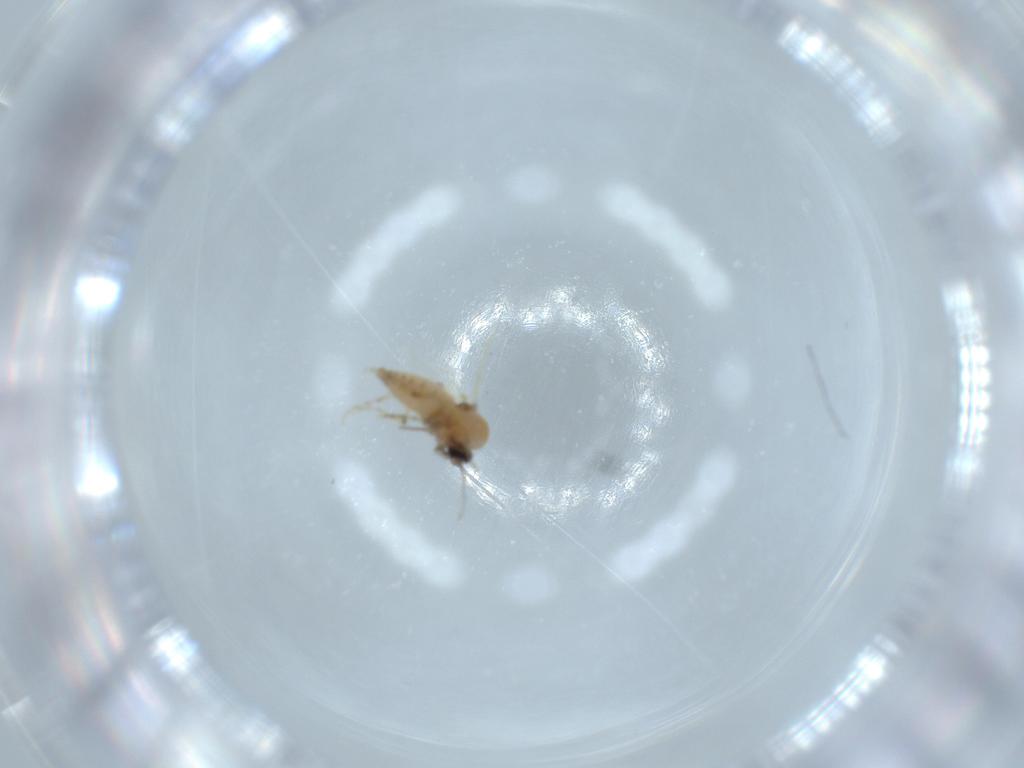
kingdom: Animalia
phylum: Arthropoda
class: Insecta
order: Diptera
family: Ceratopogonidae
